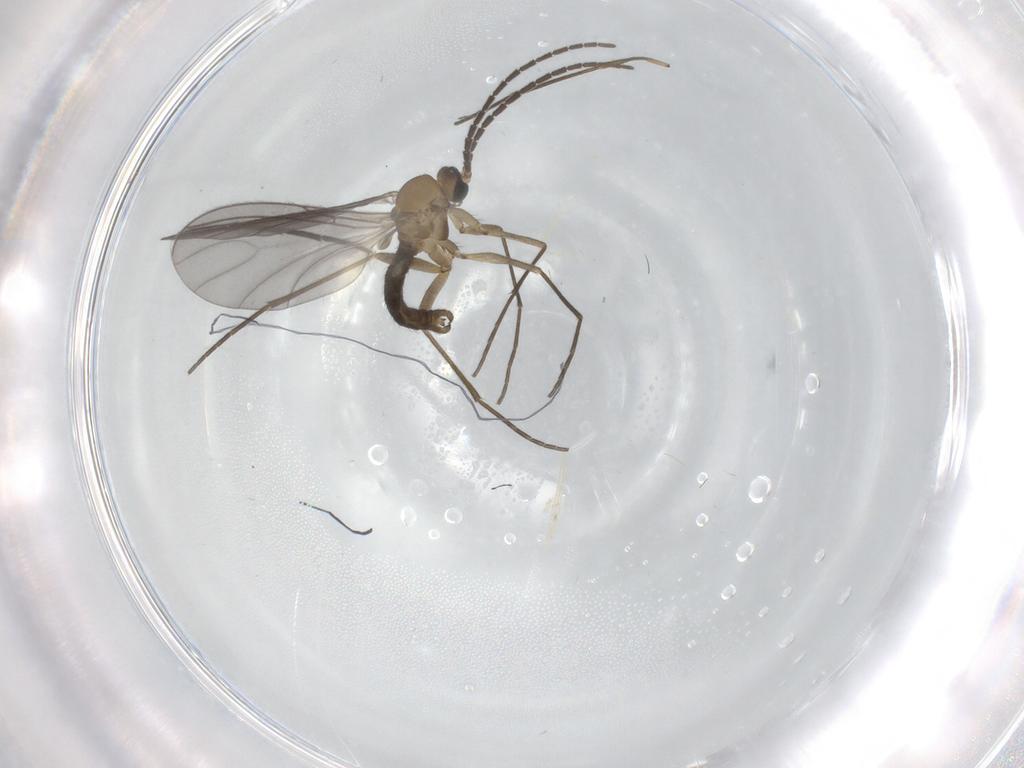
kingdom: Animalia
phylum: Arthropoda
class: Insecta
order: Diptera
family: Sciaridae
